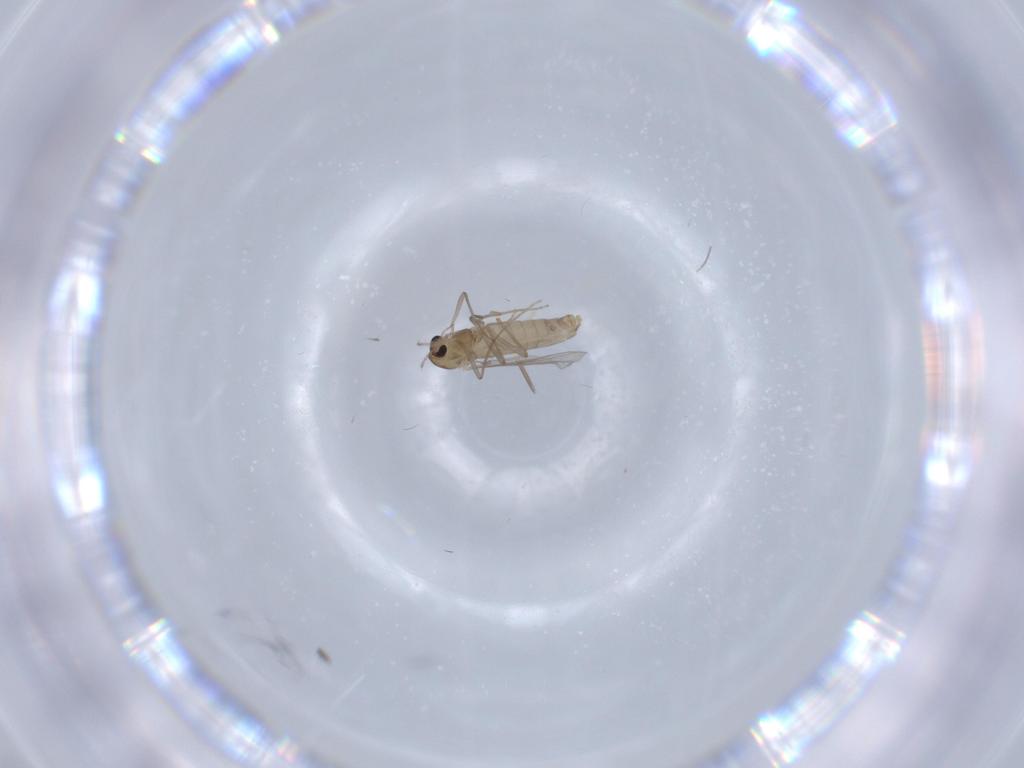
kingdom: Animalia
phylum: Arthropoda
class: Insecta
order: Diptera
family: Chironomidae
